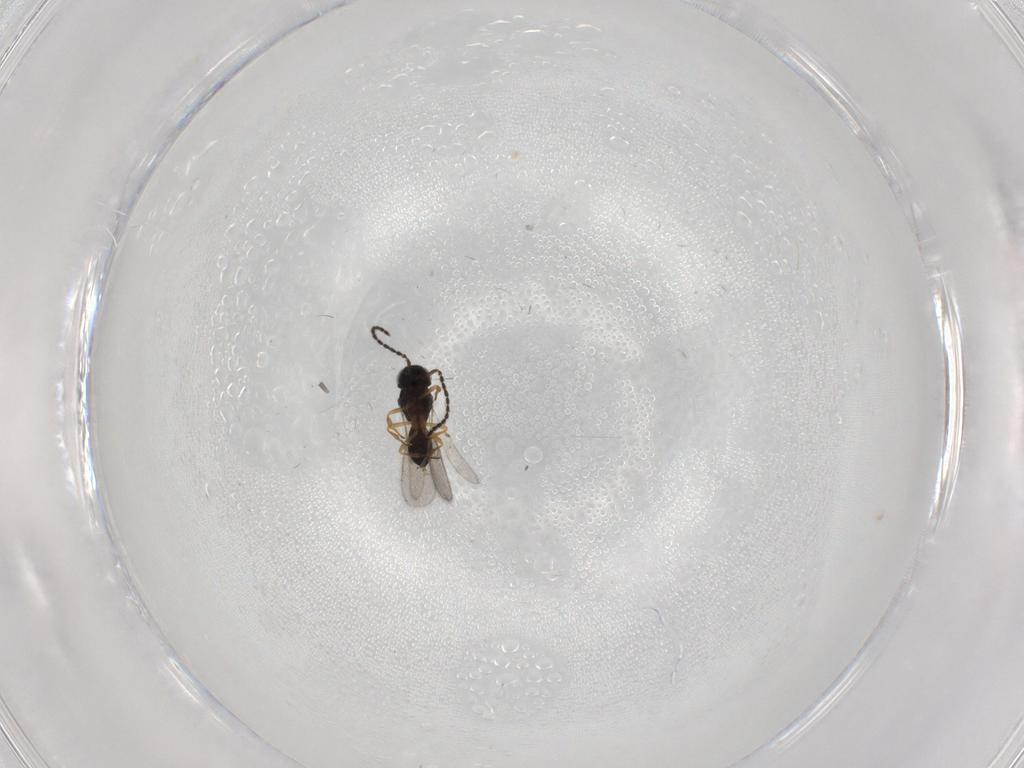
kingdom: Animalia
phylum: Arthropoda
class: Insecta
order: Hymenoptera
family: Scelionidae
